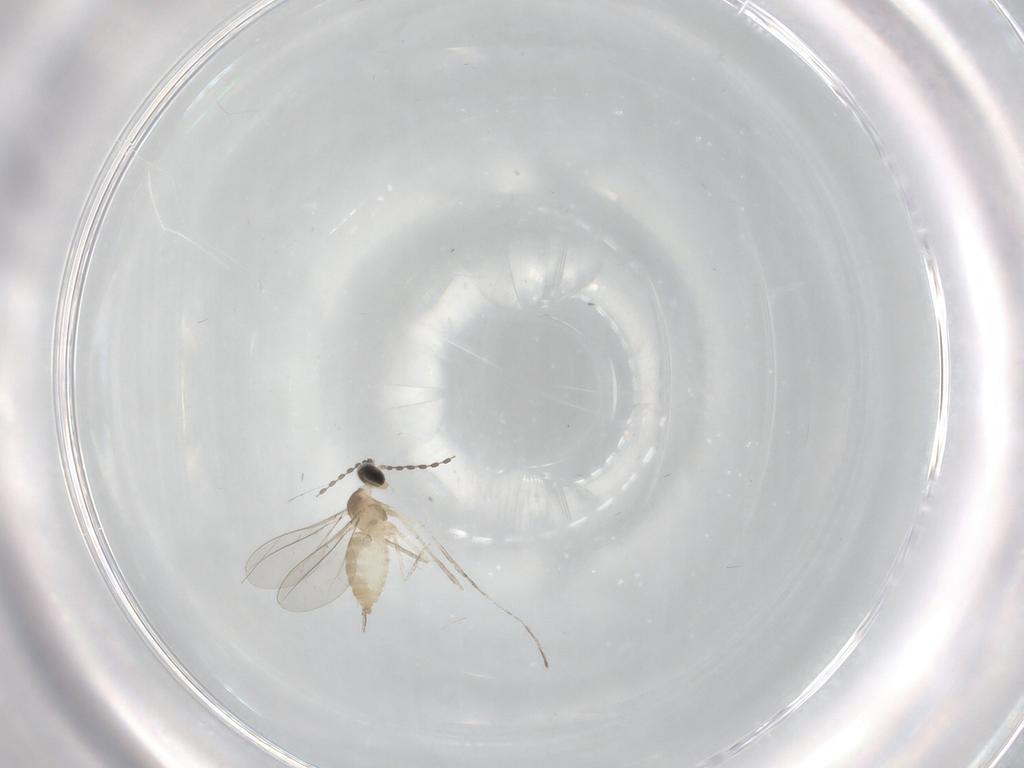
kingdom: Animalia
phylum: Arthropoda
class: Insecta
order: Diptera
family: Cecidomyiidae
